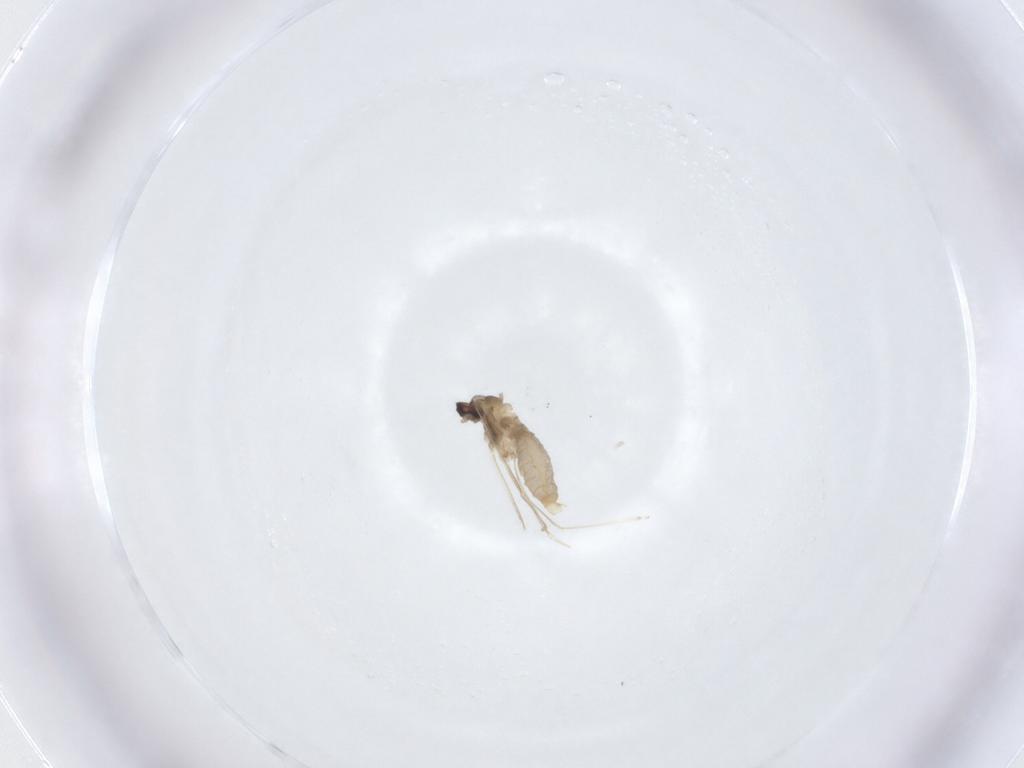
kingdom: Animalia
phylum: Arthropoda
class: Insecta
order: Diptera
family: Cecidomyiidae
